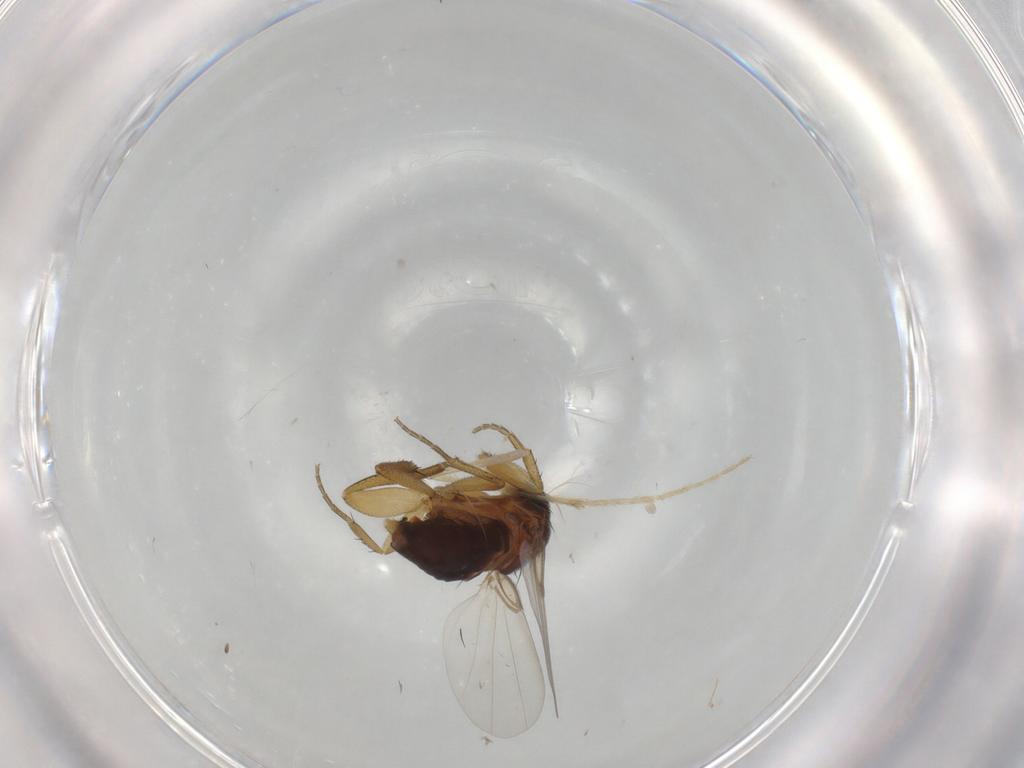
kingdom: Animalia
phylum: Arthropoda
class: Insecta
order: Diptera
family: Phoridae
